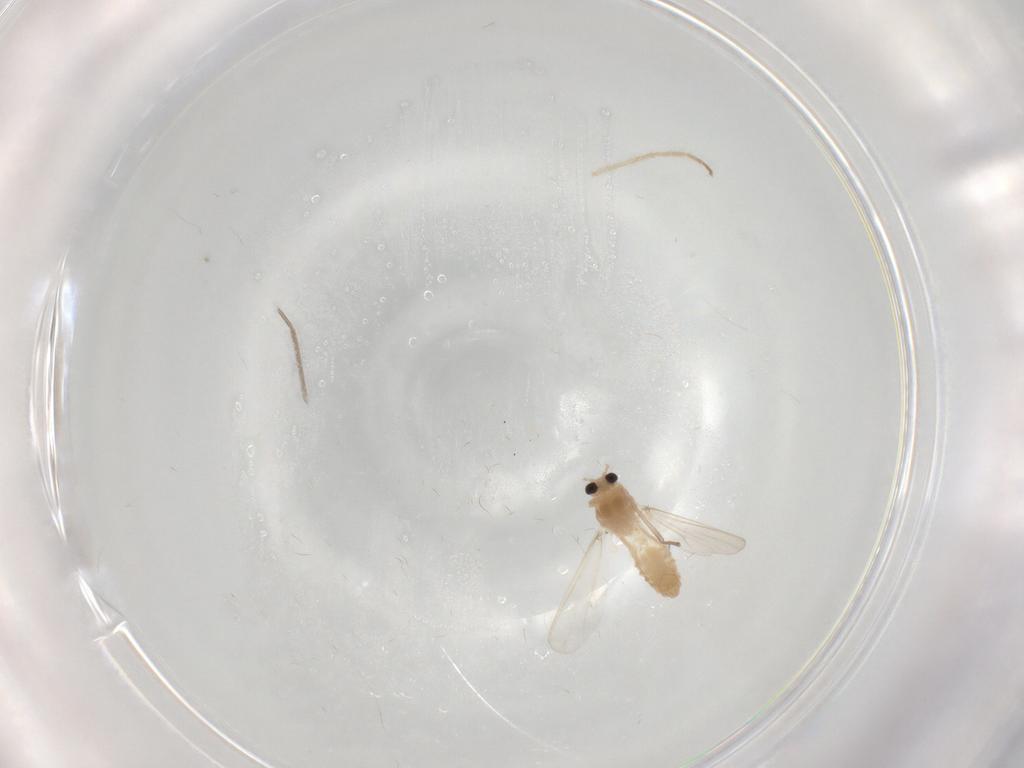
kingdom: Animalia
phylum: Arthropoda
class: Insecta
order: Diptera
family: Chironomidae
